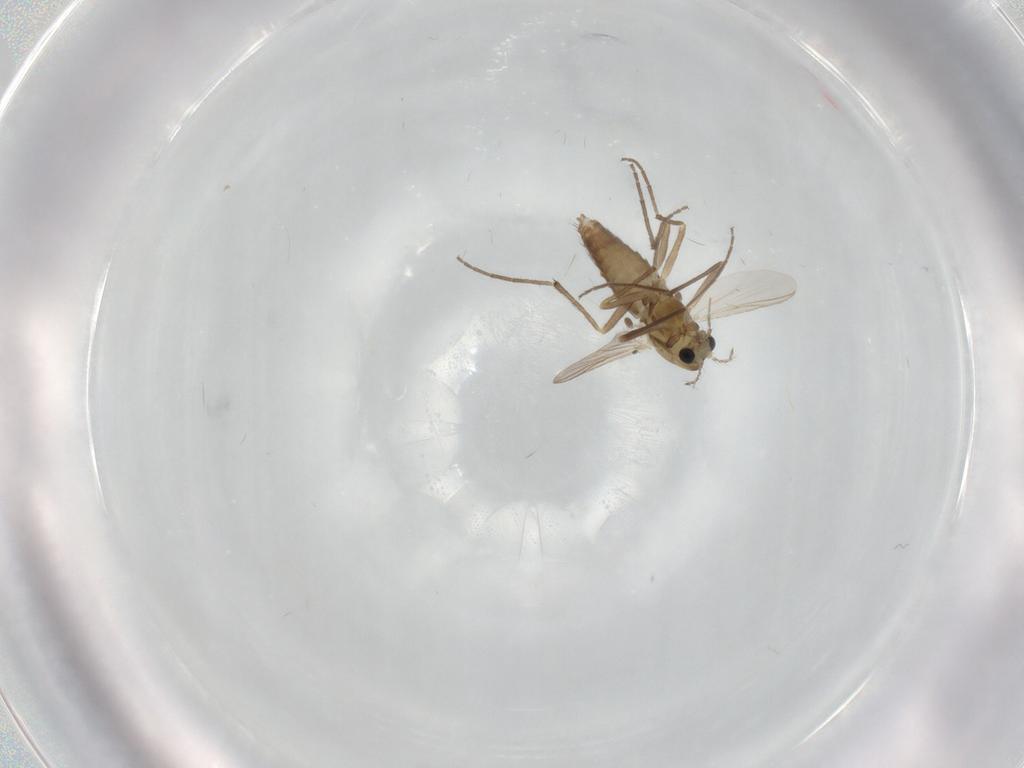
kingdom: Animalia
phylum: Arthropoda
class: Insecta
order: Diptera
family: Chironomidae
